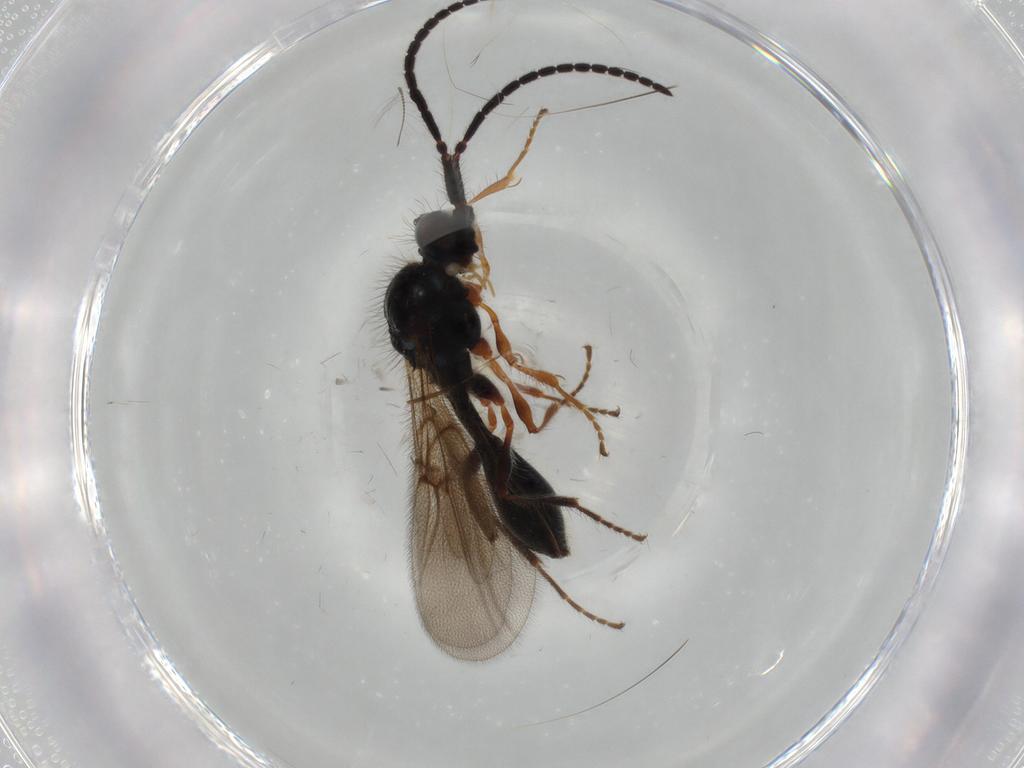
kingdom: Animalia
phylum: Arthropoda
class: Insecta
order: Hymenoptera
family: Diapriidae
